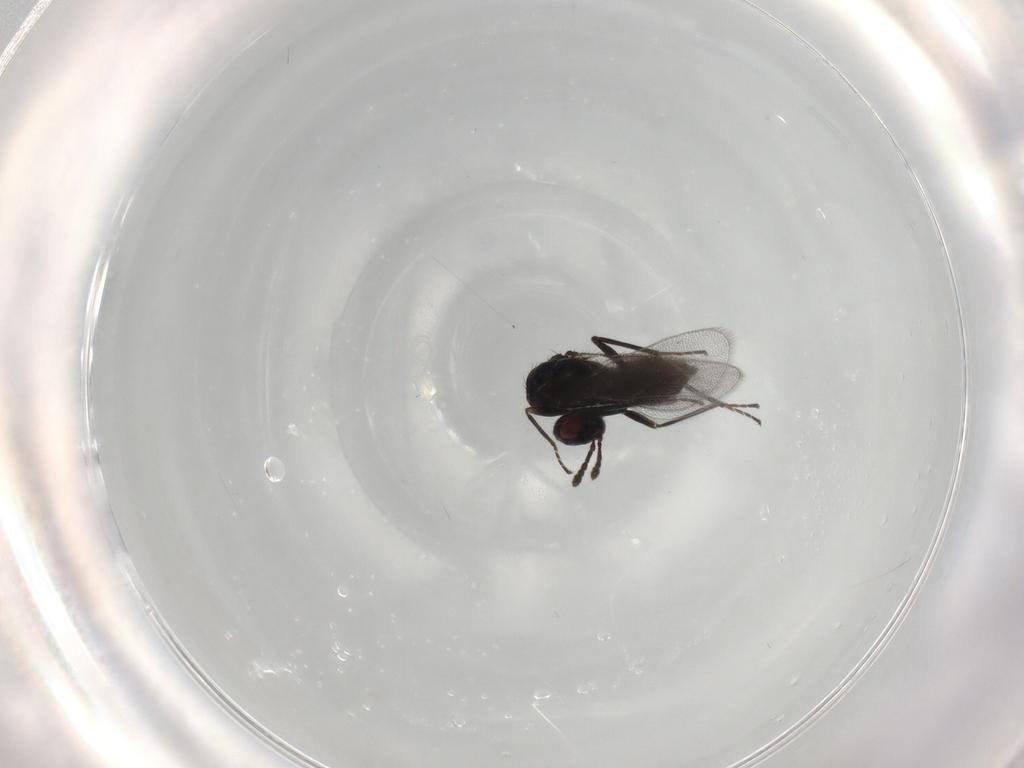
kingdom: Animalia
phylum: Arthropoda
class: Insecta
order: Hymenoptera
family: Eulophidae
